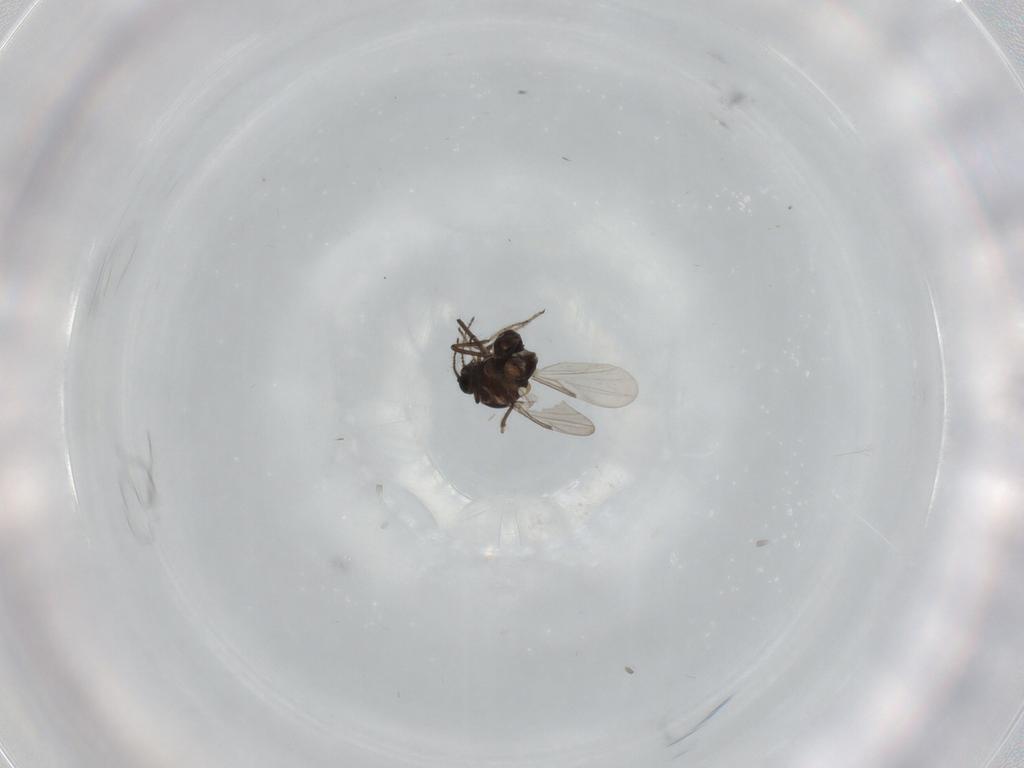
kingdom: Animalia
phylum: Arthropoda
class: Insecta
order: Diptera
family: Ceratopogonidae
